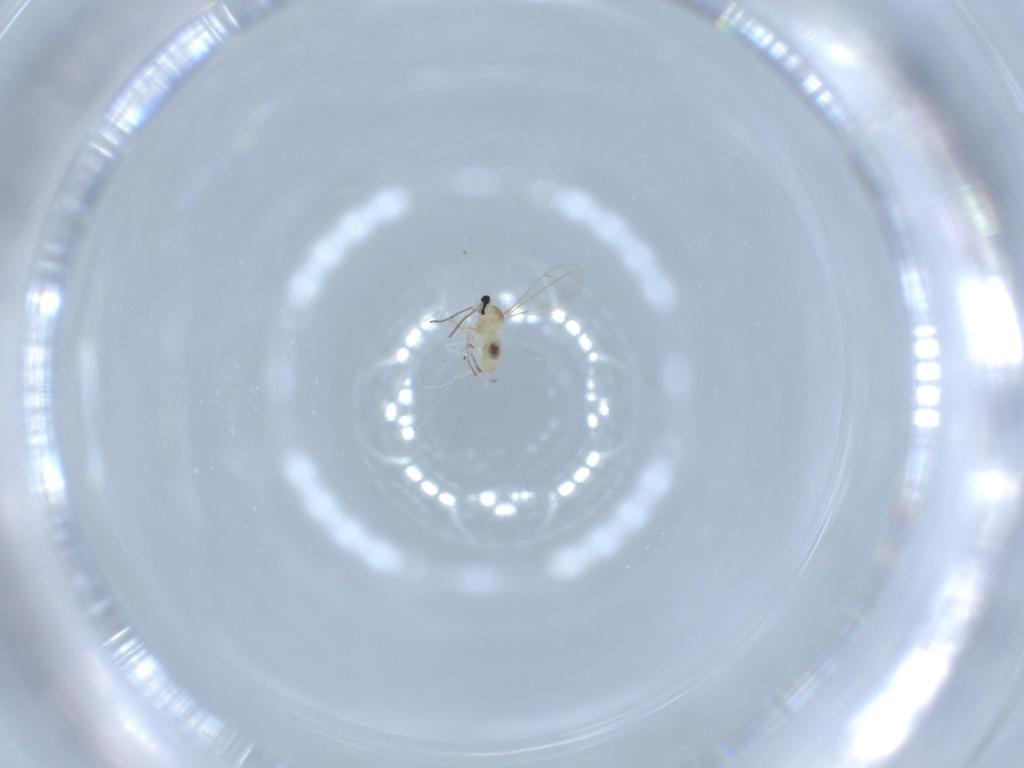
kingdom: Animalia
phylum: Arthropoda
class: Insecta
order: Diptera
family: Cecidomyiidae
